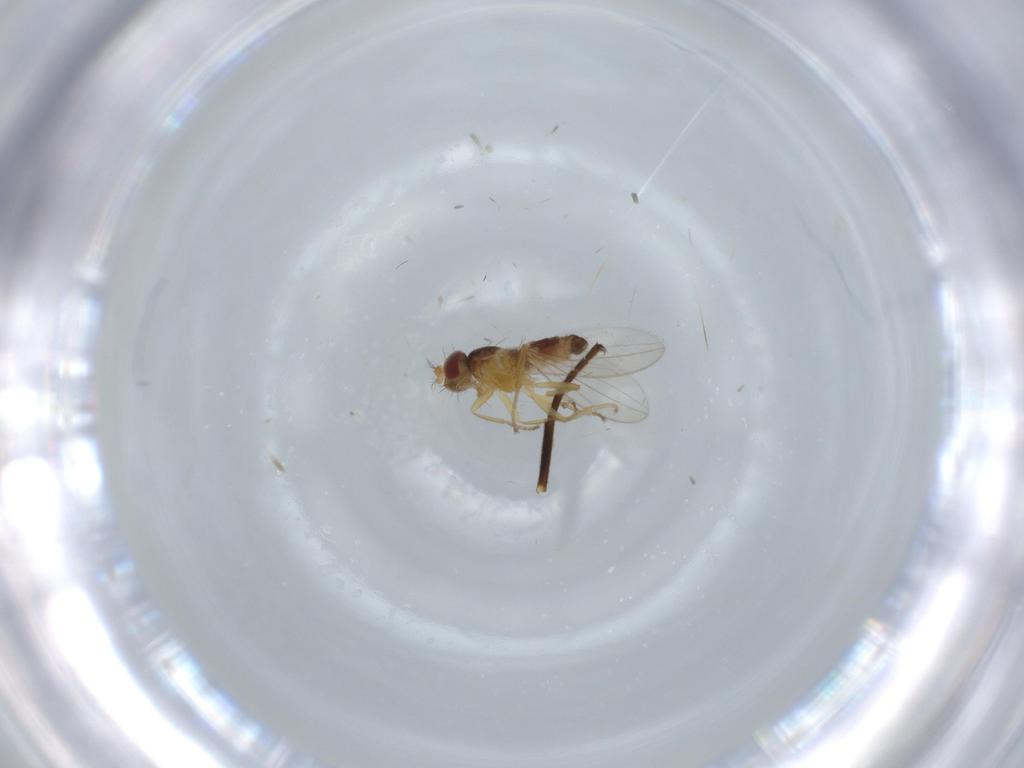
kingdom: Animalia
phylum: Arthropoda
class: Insecta
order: Diptera
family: Periscelididae
